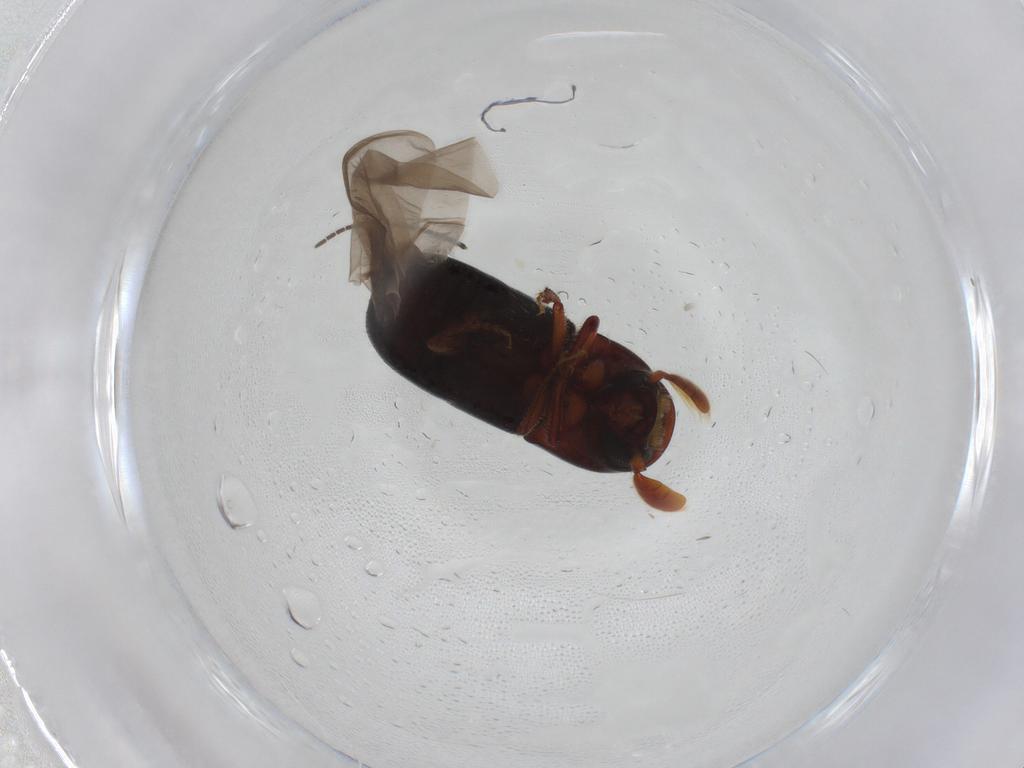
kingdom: Animalia
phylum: Arthropoda
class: Insecta
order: Coleoptera
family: Curculionidae
